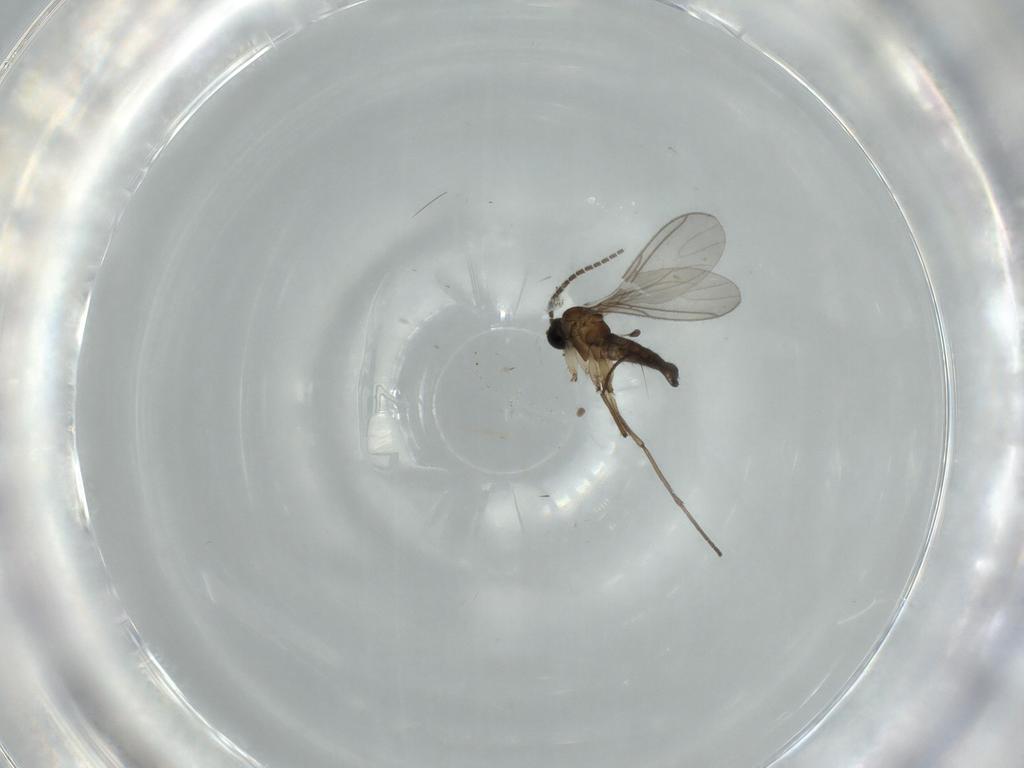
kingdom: Animalia
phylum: Arthropoda
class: Insecta
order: Diptera
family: Sciaridae
